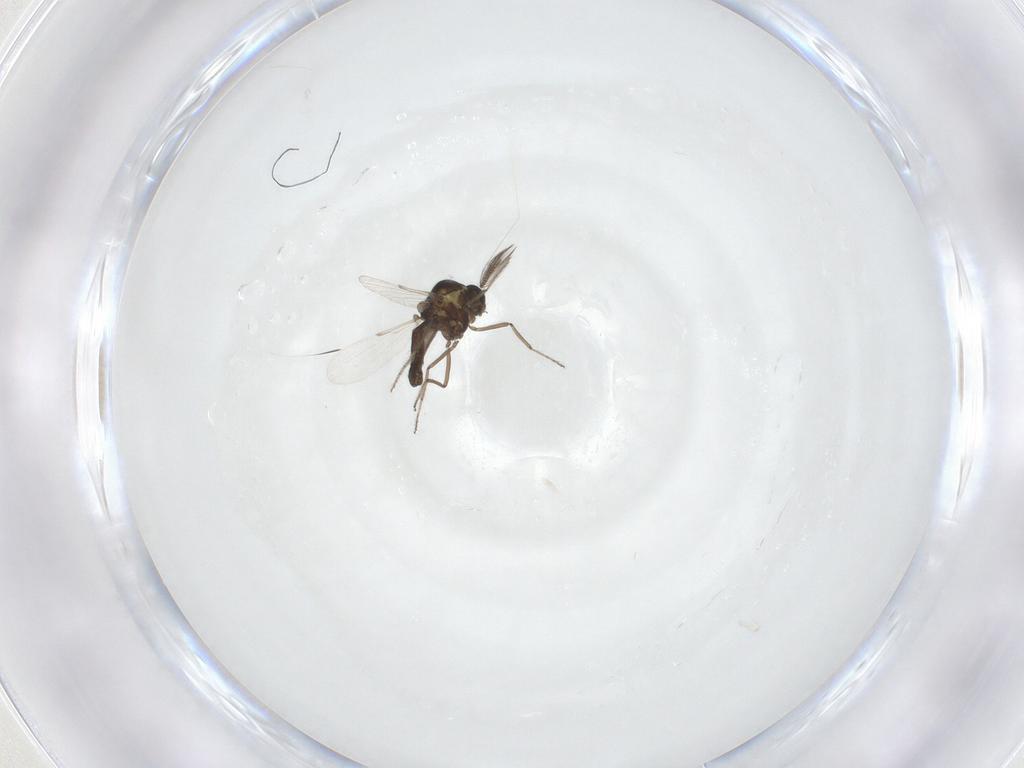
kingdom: Animalia
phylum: Arthropoda
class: Insecta
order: Diptera
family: Ceratopogonidae
